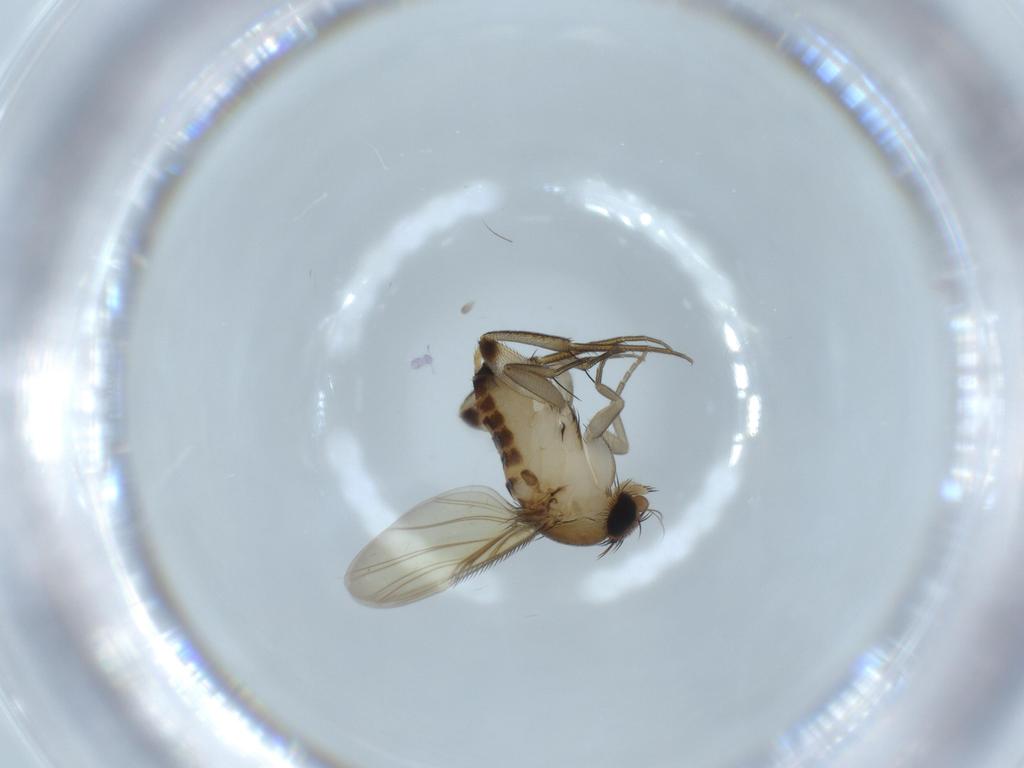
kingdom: Animalia
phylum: Arthropoda
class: Insecta
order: Diptera
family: Phoridae
